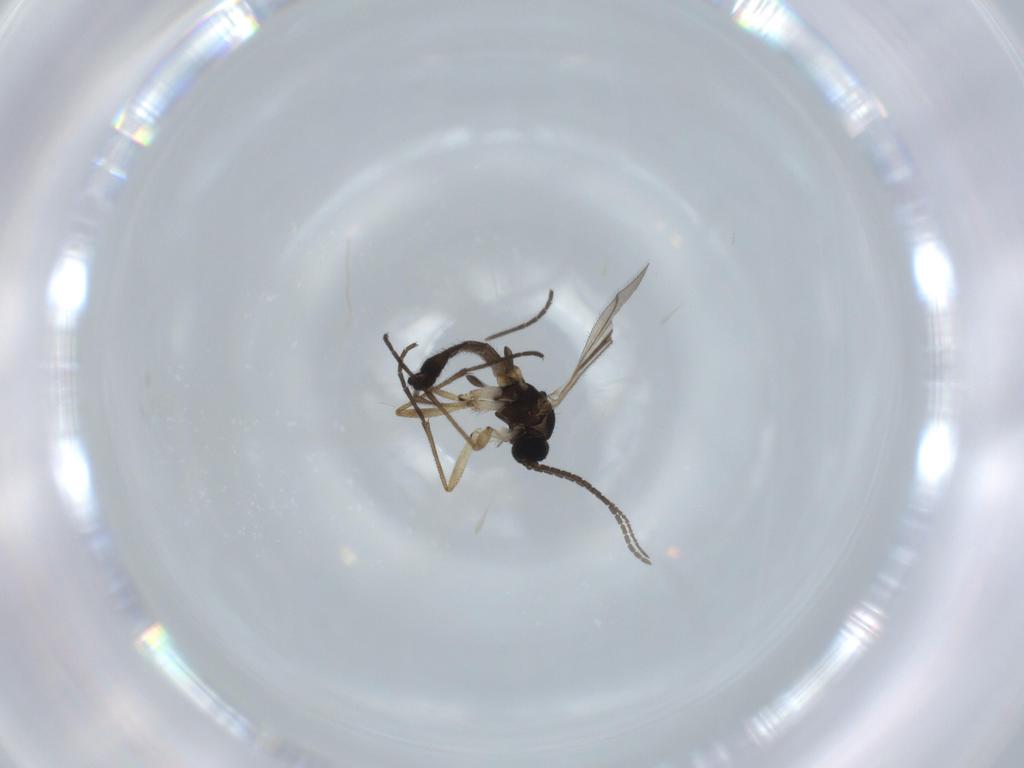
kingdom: Animalia
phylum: Arthropoda
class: Insecta
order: Diptera
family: Sciaridae
